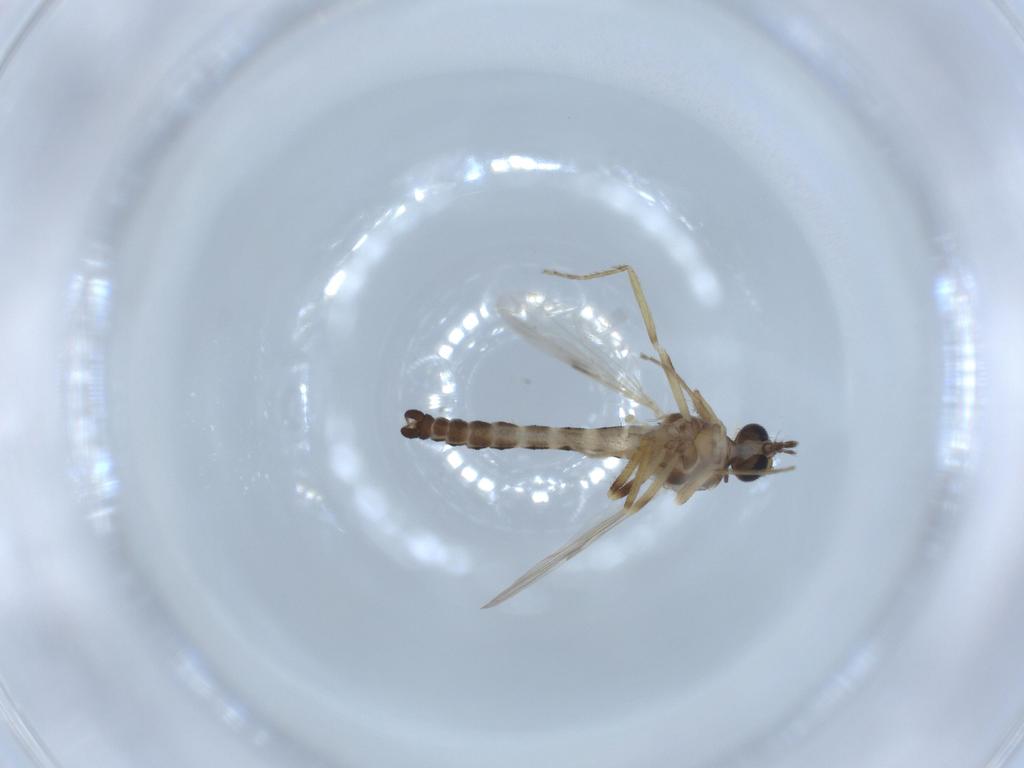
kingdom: Animalia
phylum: Arthropoda
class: Insecta
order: Diptera
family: Ceratopogonidae
